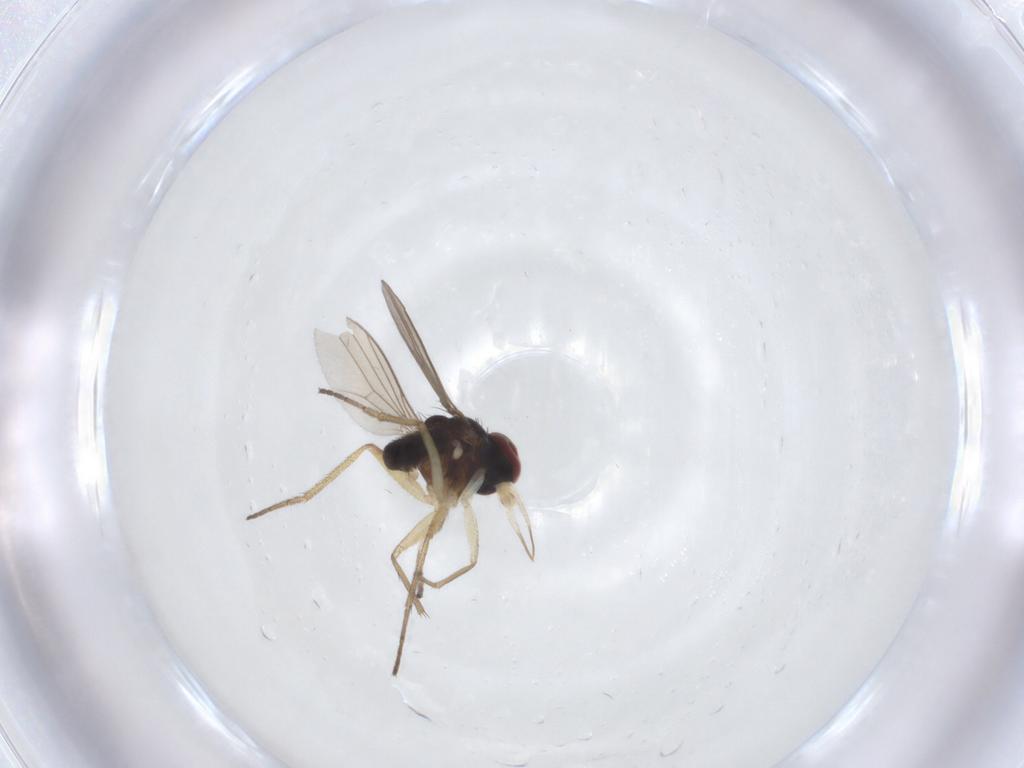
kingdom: Animalia
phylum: Arthropoda
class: Insecta
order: Diptera
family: Dolichopodidae
